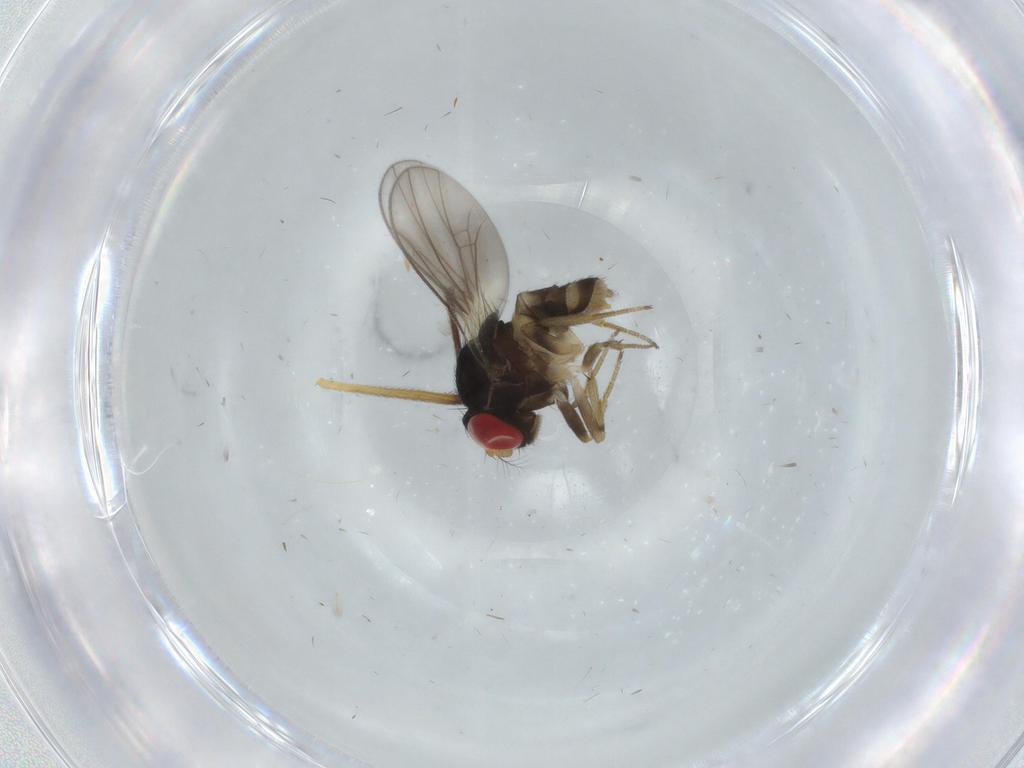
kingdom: Animalia
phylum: Arthropoda
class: Insecta
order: Diptera
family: Drosophilidae
